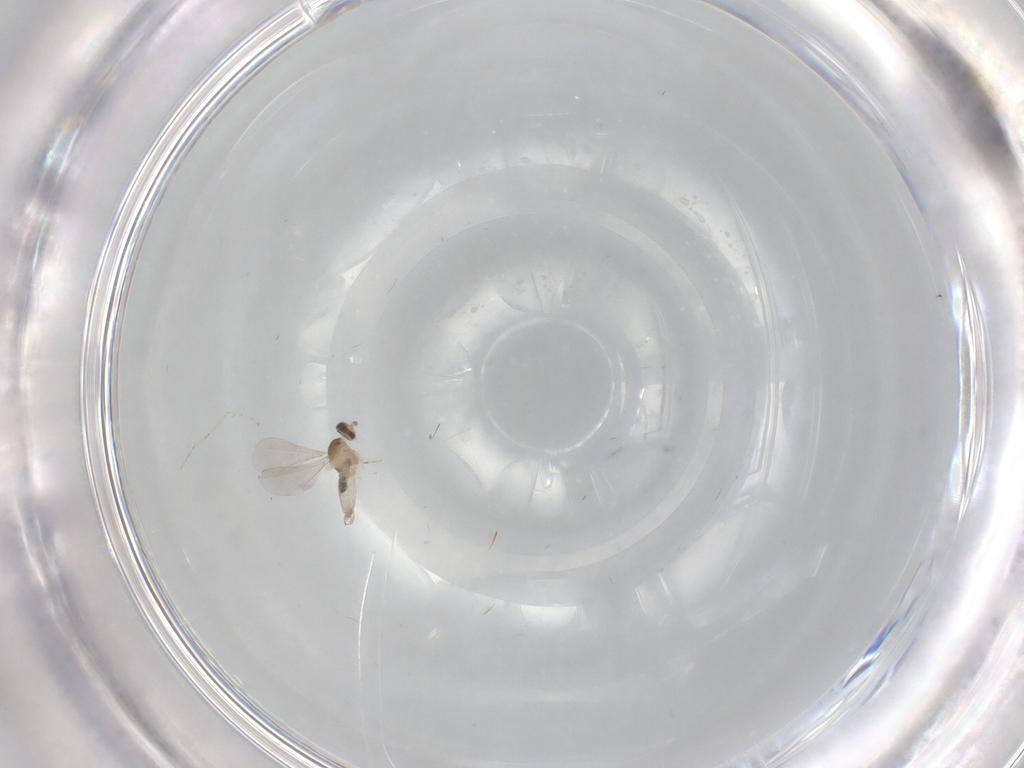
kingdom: Animalia
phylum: Arthropoda
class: Insecta
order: Diptera
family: Cecidomyiidae
